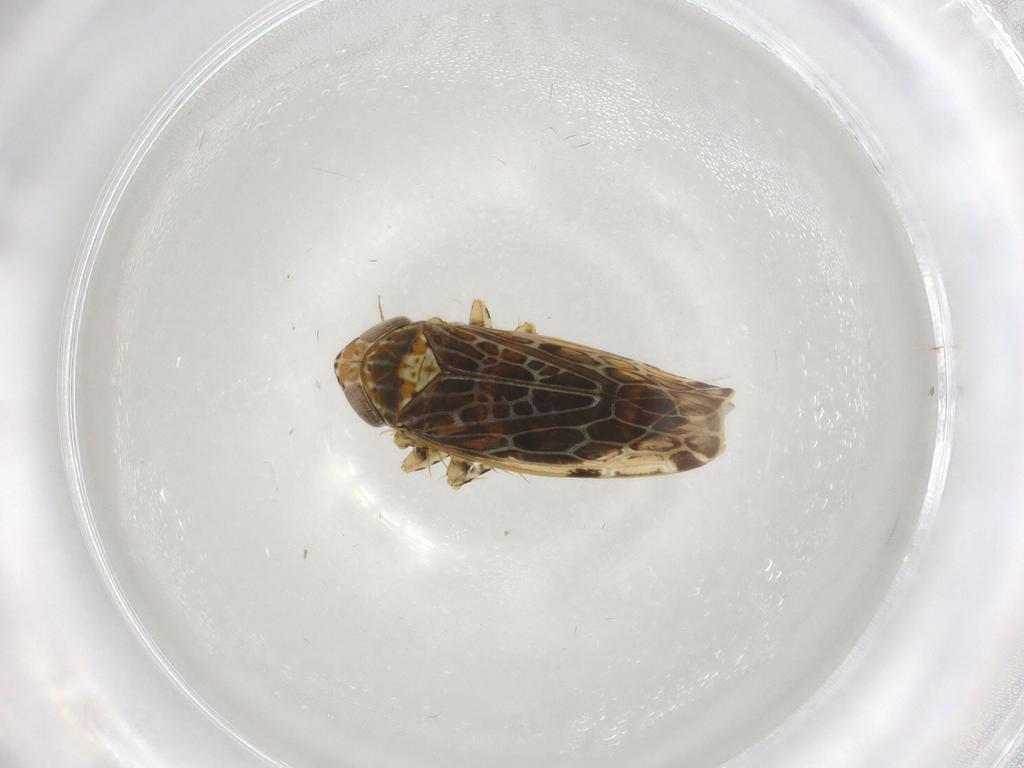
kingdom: Animalia
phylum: Arthropoda
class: Insecta
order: Hemiptera
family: Cicadellidae
